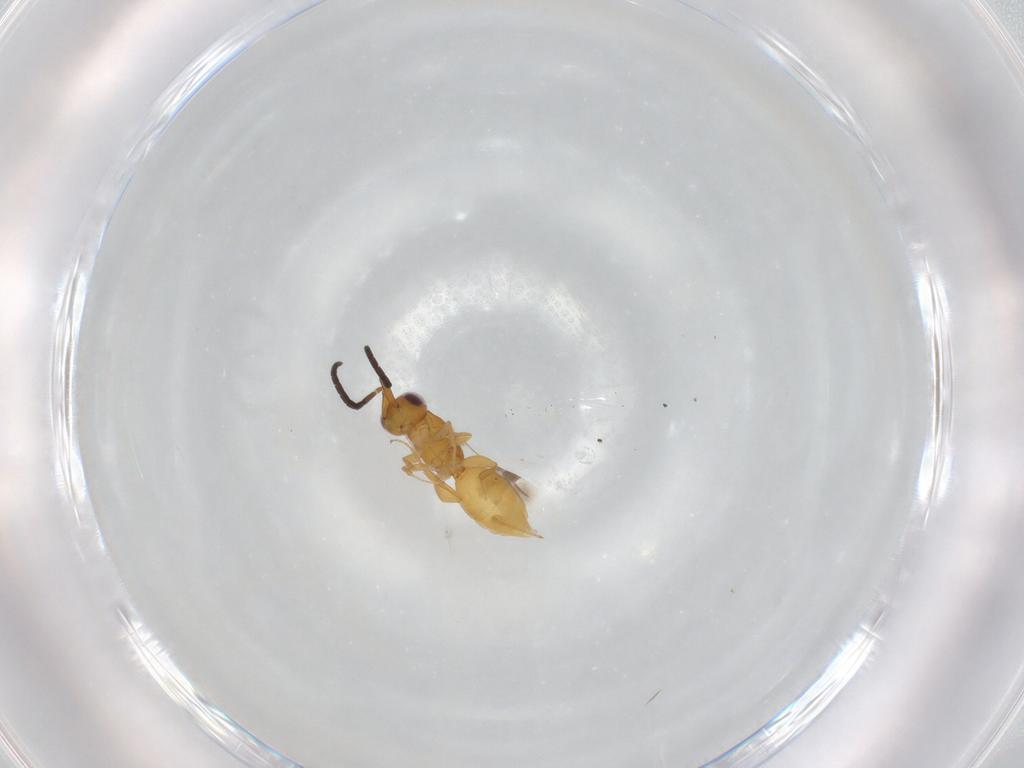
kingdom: Animalia
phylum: Arthropoda
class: Insecta
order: Hymenoptera
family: Megaspilidae
